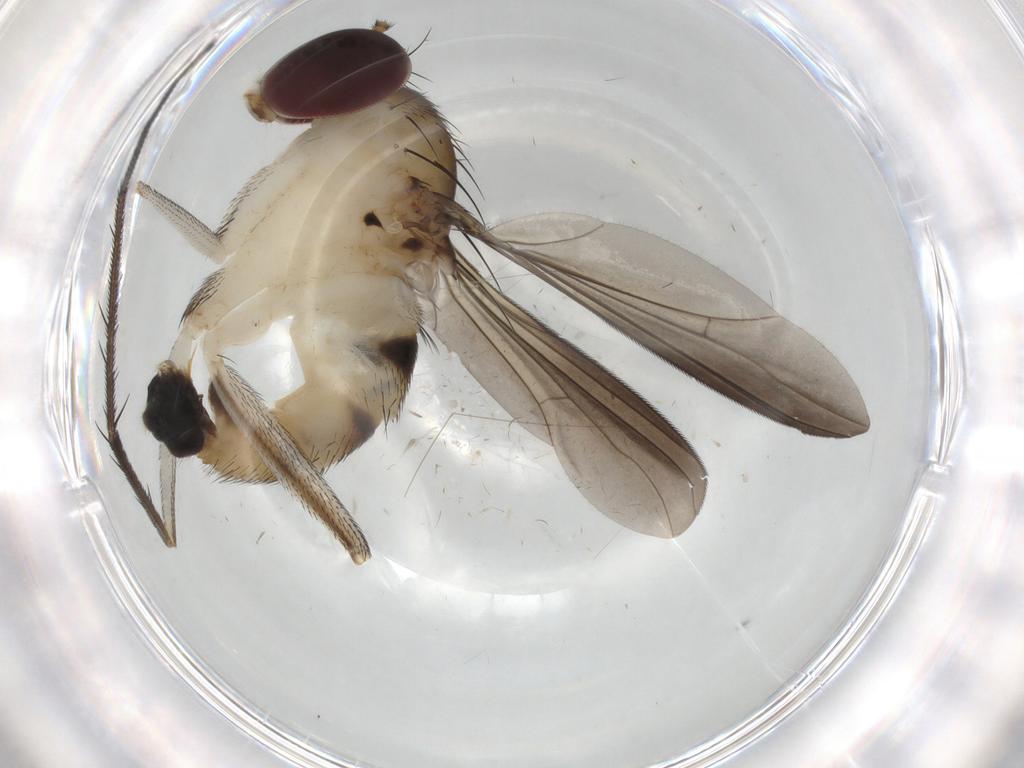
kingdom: Animalia
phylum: Arthropoda
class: Insecta
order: Diptera
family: Dolichopodidae
